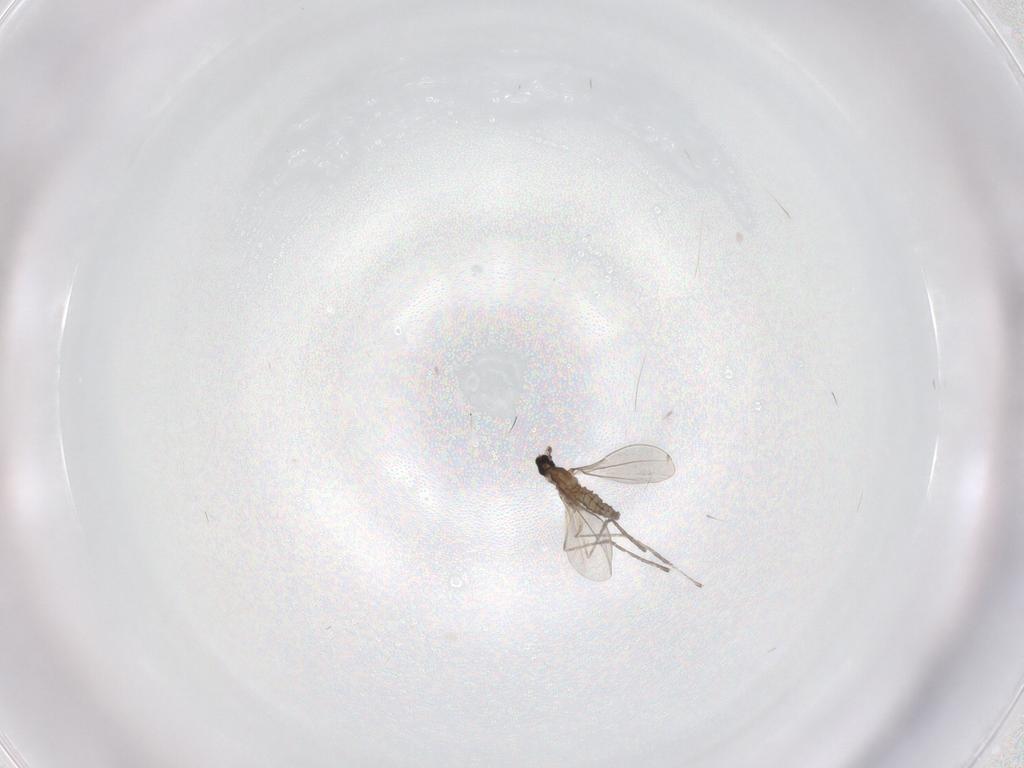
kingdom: Animalia
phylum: Arthropoda
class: Insecta
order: Diptera
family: Cecidomyiidae
